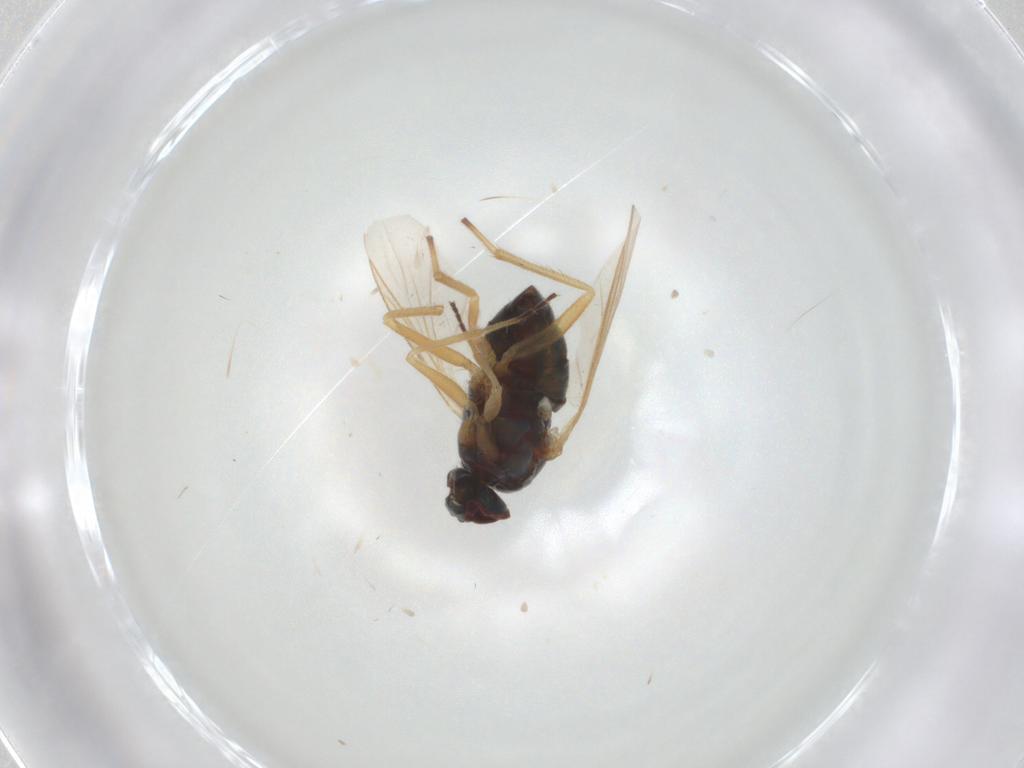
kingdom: Animalia
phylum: Arthropoda
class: Insecta
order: Diptera
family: Dolichopodidae
